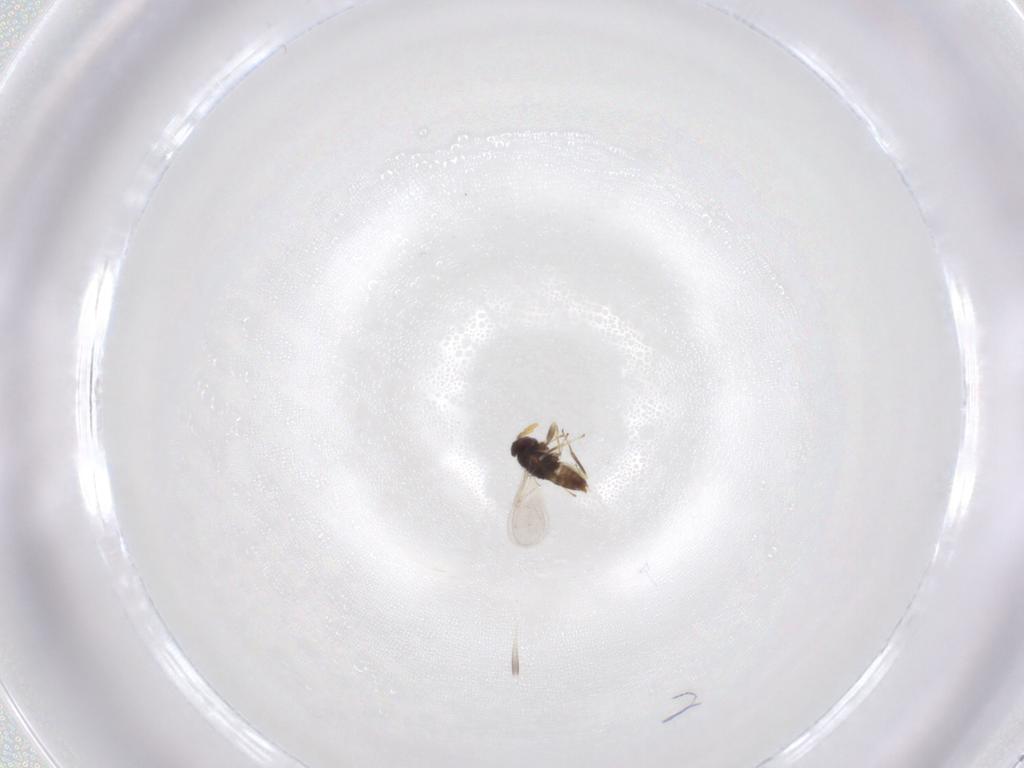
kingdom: Animalia
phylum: Arthropoda
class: Insecta
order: Hymenoptera
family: Aphelinidae
